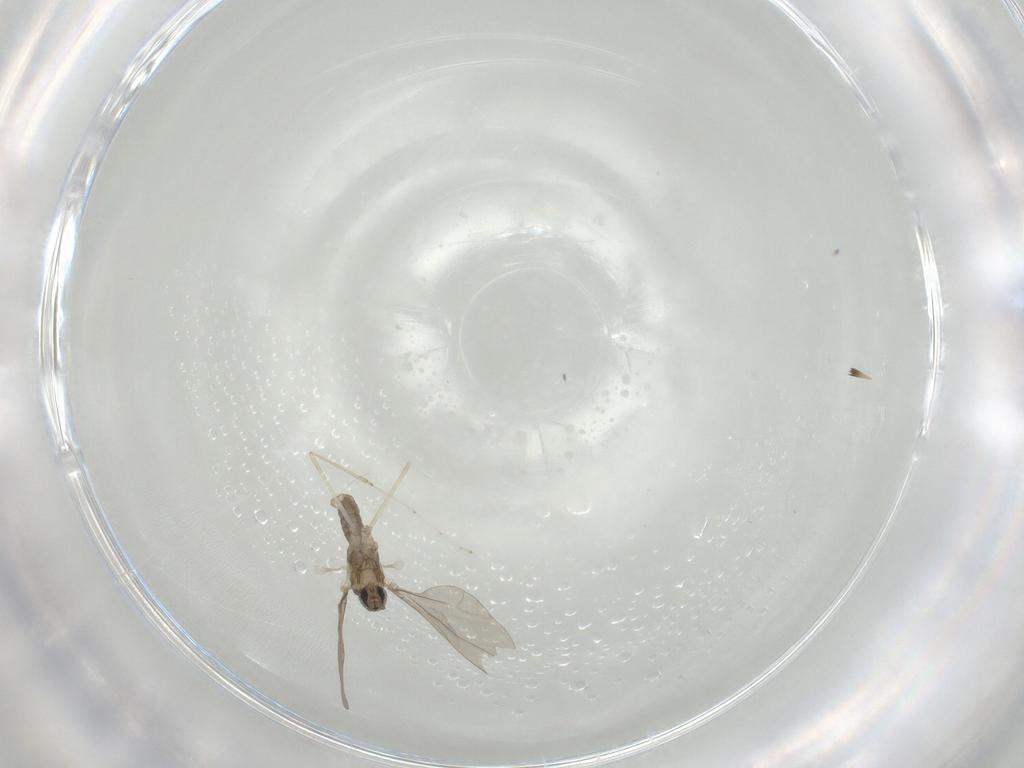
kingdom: Animalia
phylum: Arthropoda
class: Insecta
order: Diptera
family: Cecidomyiidae
